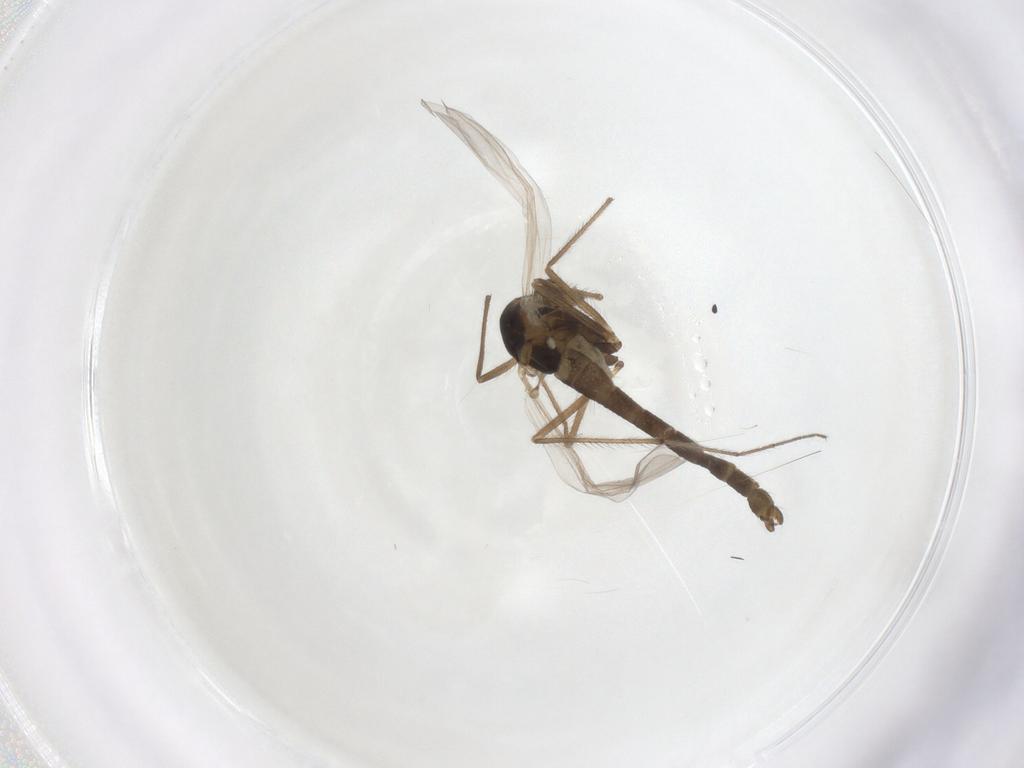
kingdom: Animalia
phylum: Arthropoda
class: Insecta
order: Diptera
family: Chironomidae
